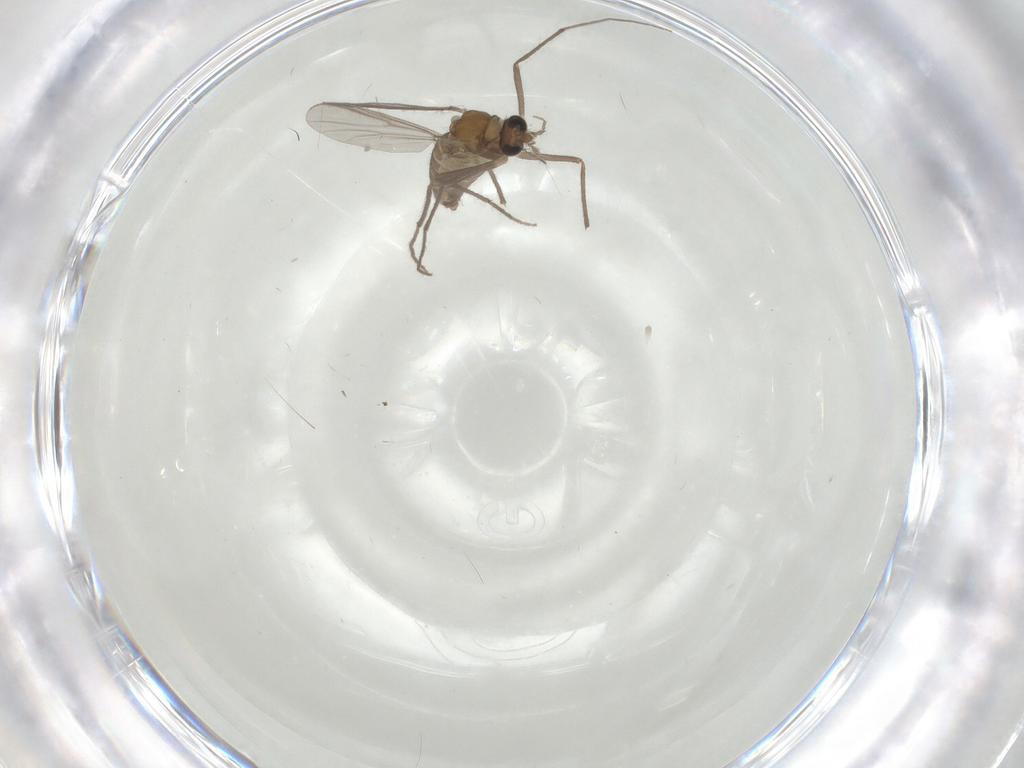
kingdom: Animalia
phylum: Arthropoda
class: Insecta
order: Diptera
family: Chironomidae
